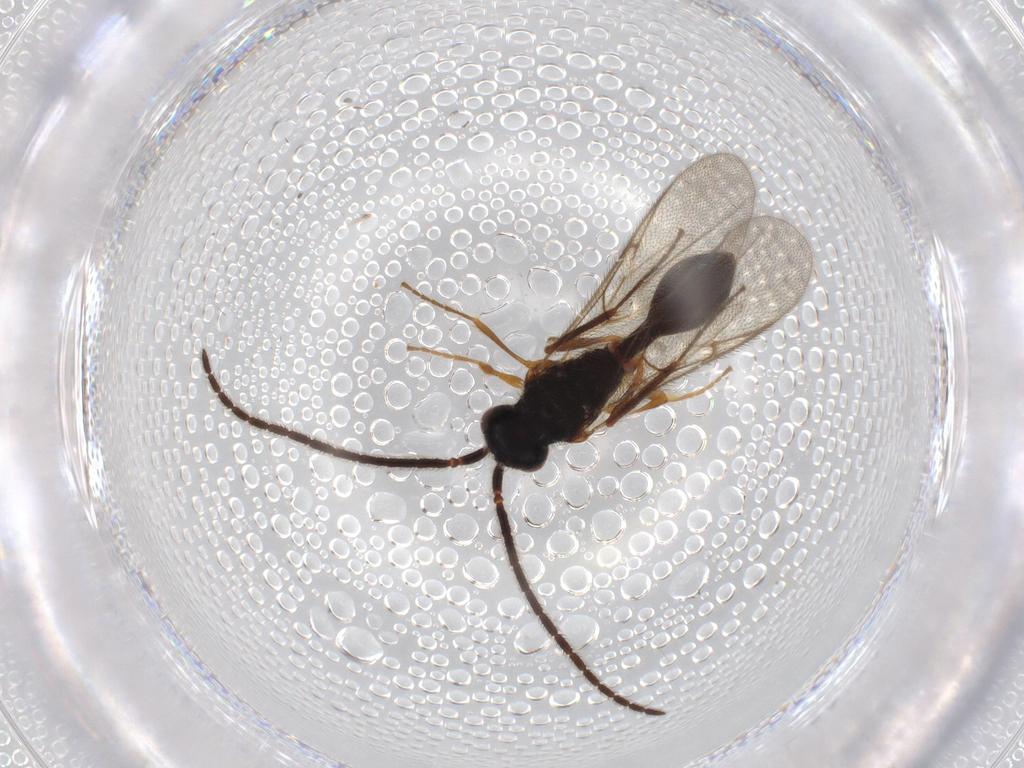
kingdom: Animalia
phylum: Arthropoda
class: Insecta
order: Hymenoptera
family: Diapriidae
